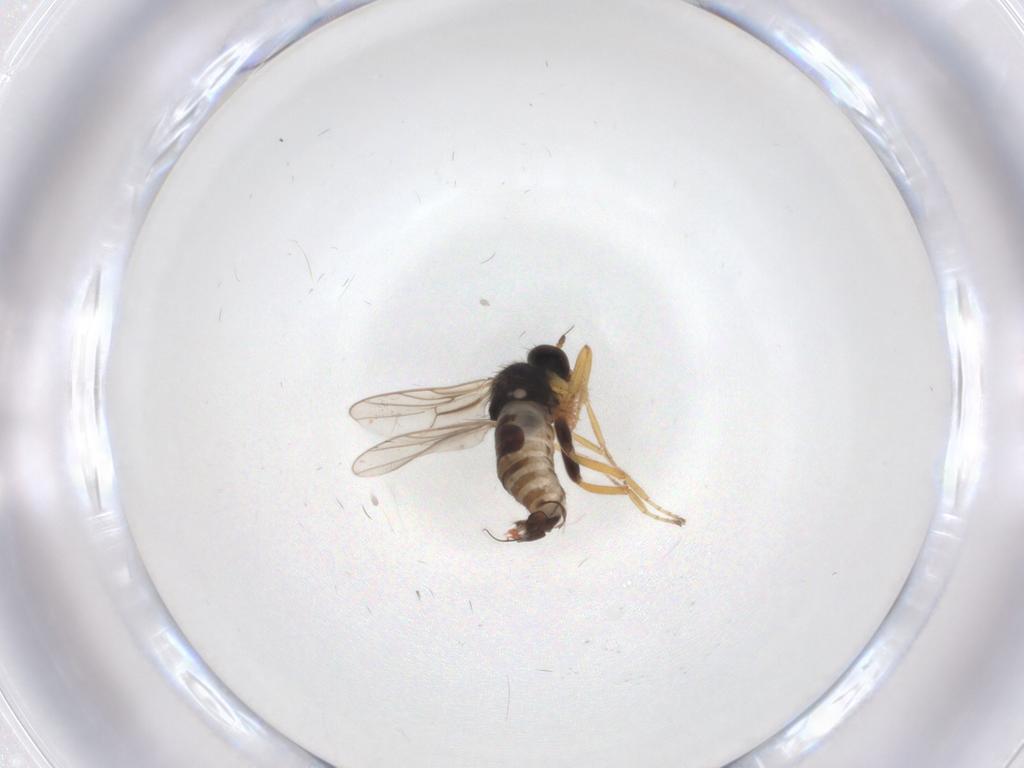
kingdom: Animalia
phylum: Arthropoda
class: Insecta
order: Diptera
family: Hybotidae
